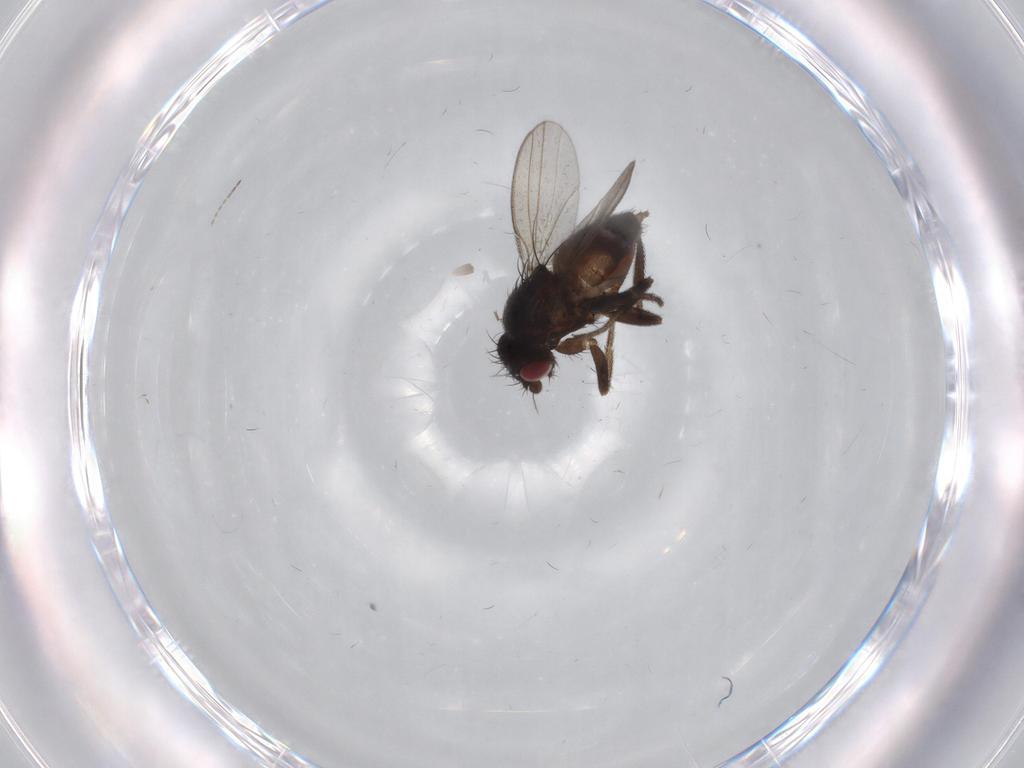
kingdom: Animalia
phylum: Arthropoda
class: Insecta
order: Diptera
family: Cecidomyiidae
